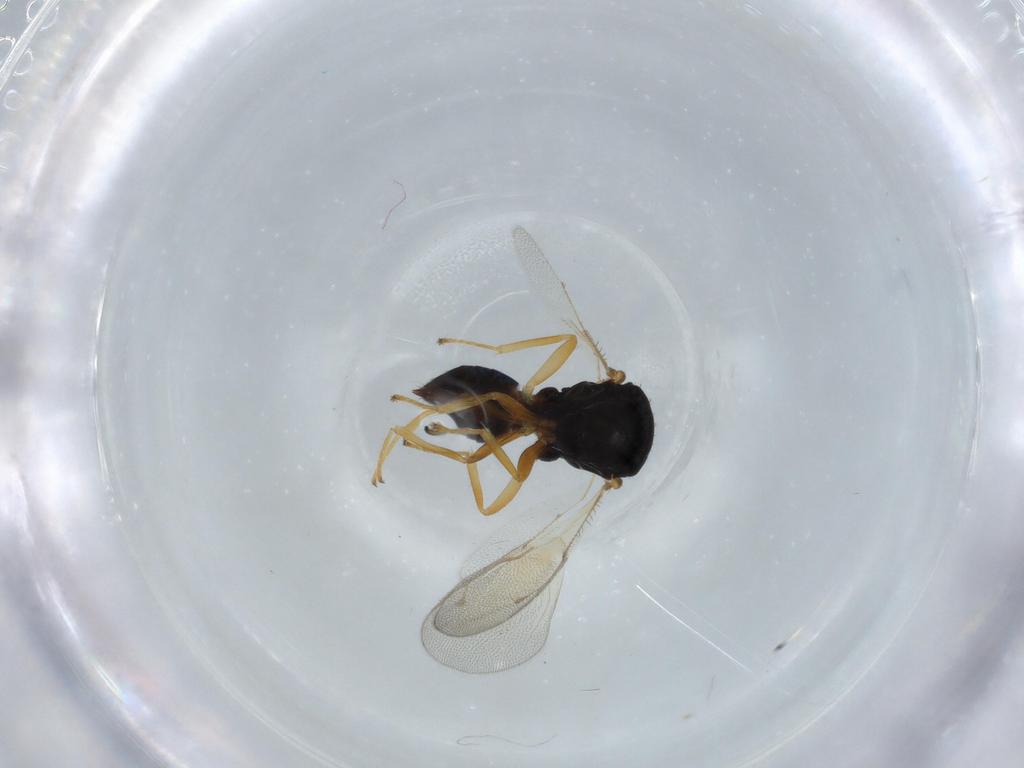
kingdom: Animalia
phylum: Arthropoda
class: Insecta
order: Hymenoptera
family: Pteromalidae
